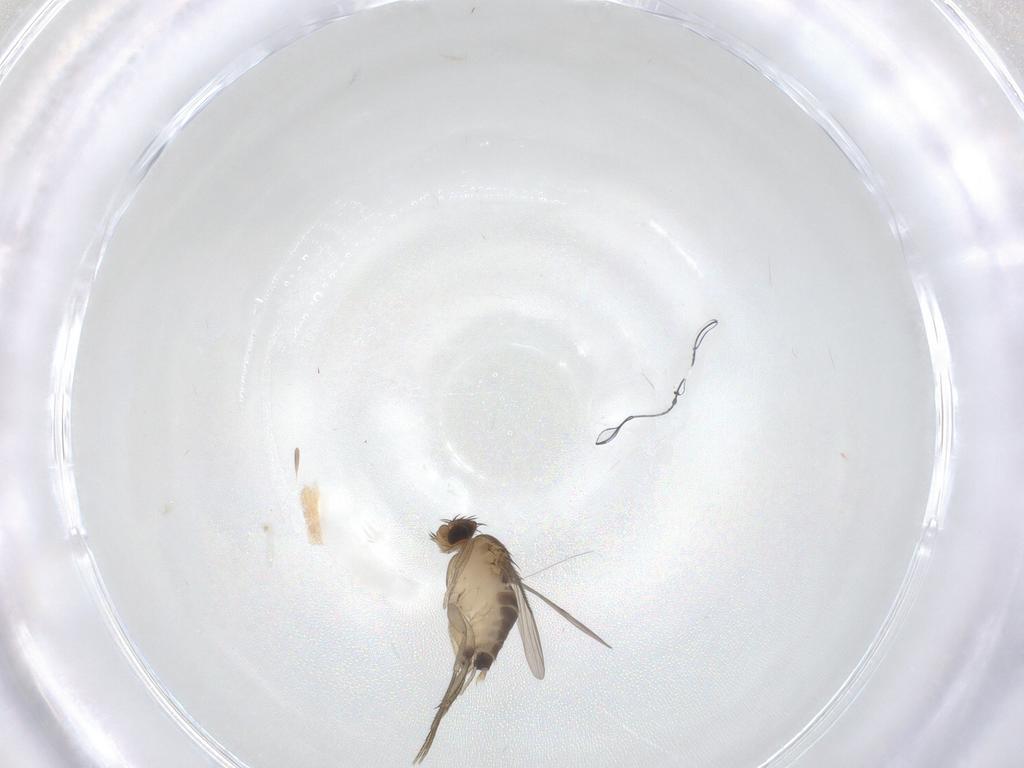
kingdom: Animalia
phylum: Arthropoda
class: Insecta
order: Diptera
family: Phoridae
